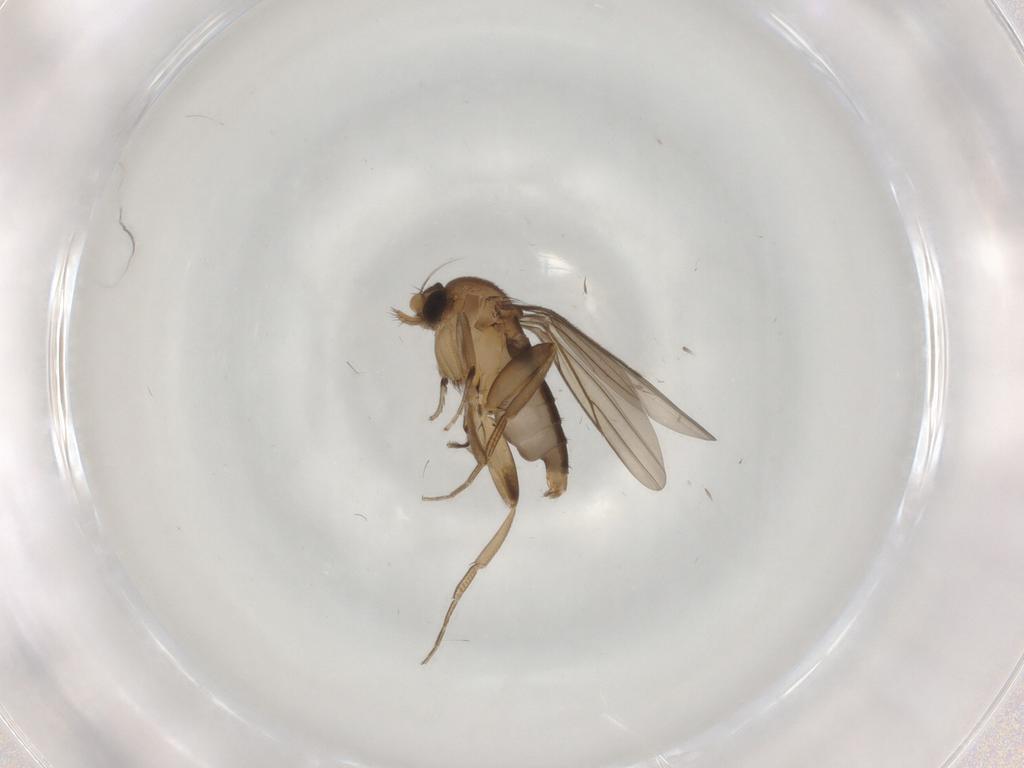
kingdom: Animalia
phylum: Arthropoda
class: Insecta
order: Diptera
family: Phoridae
